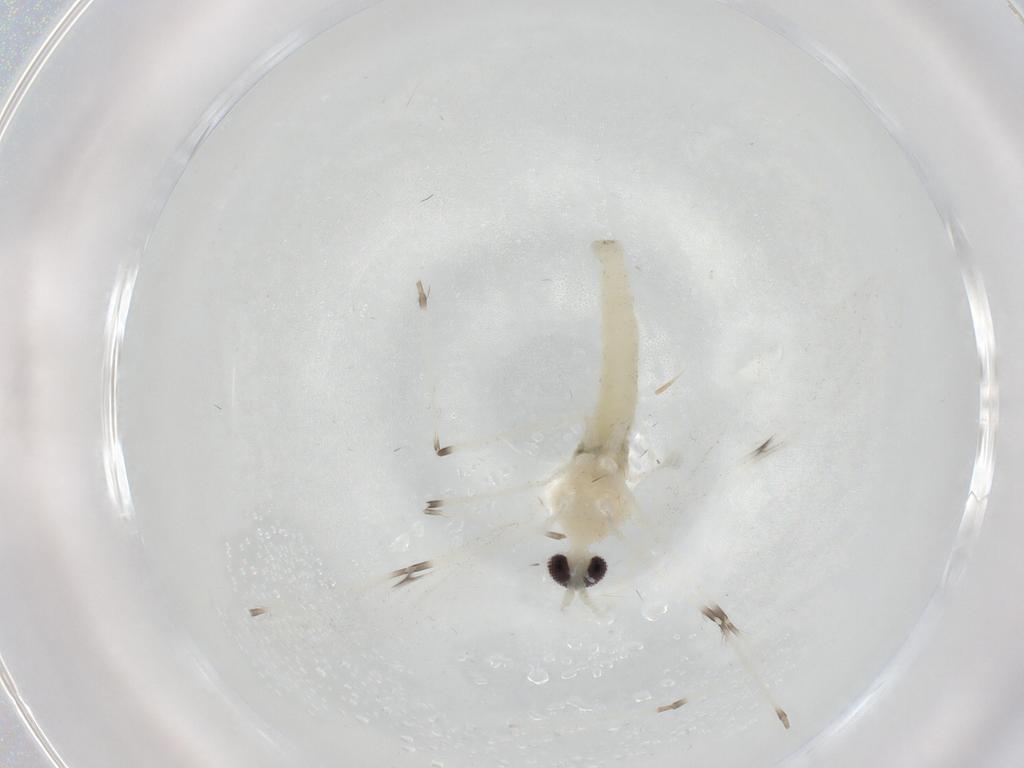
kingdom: Animalia
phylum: Arthropoda
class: Insecta
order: Diptera
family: Cecidomyiidae
